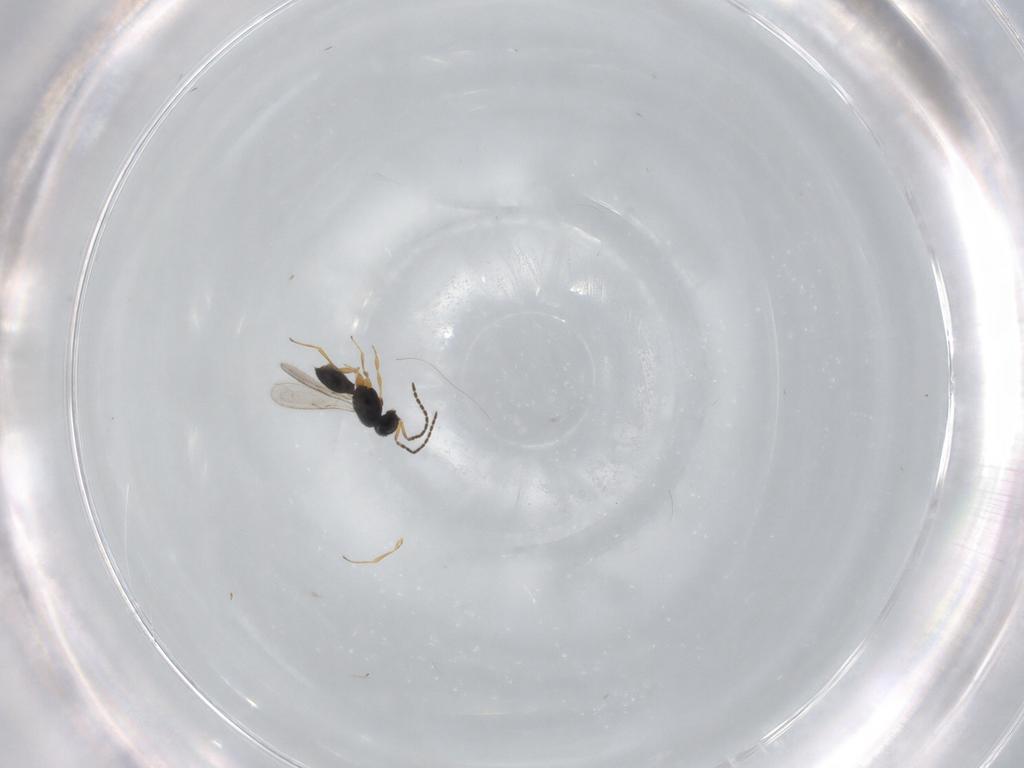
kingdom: Animalia
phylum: Arthropoda
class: Insecta
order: Hymenoptera
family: Scelionidae
